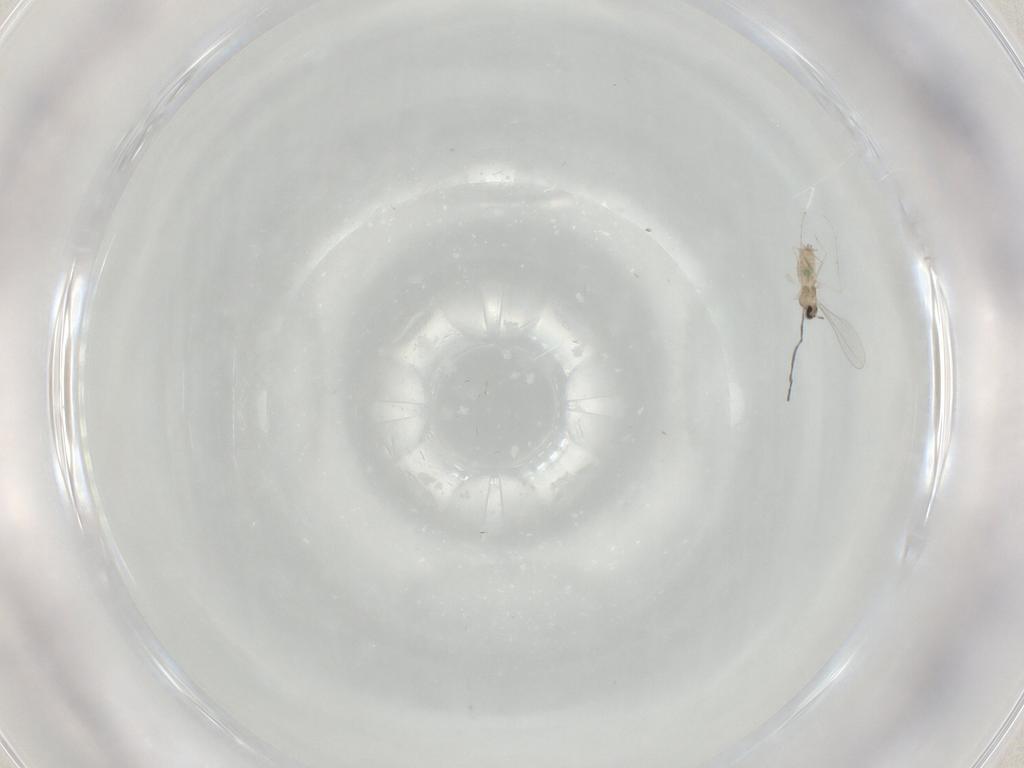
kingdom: Animalia
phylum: Arthropoda
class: Insecta
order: Diptera
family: Cecidomyiidae
